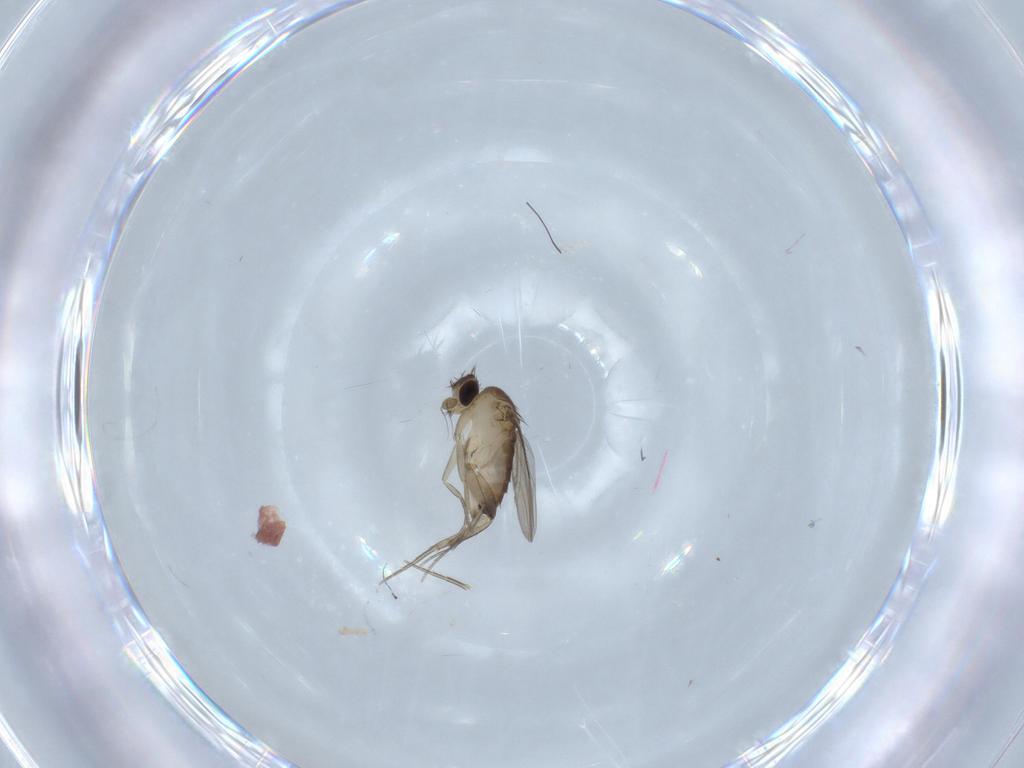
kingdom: Animalia
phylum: Arthropoda
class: Insecta
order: Diptera
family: Phoridae
